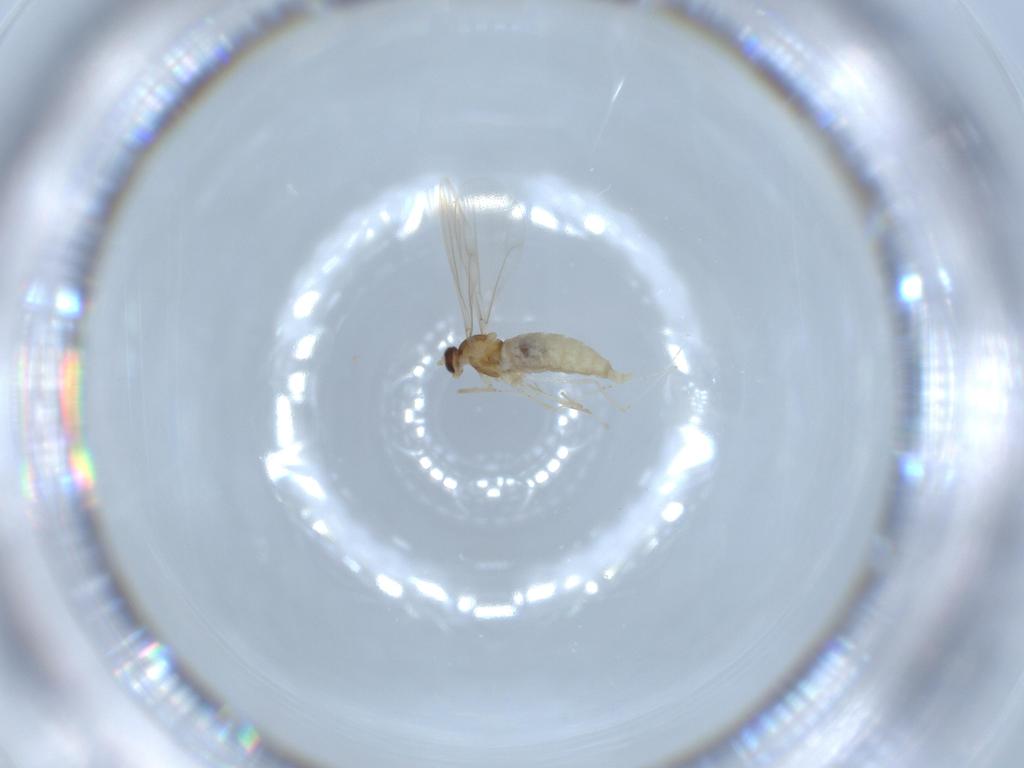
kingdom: Animalia
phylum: Arthropoda
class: Insecta
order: Diptera
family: Cecidomyiidae
